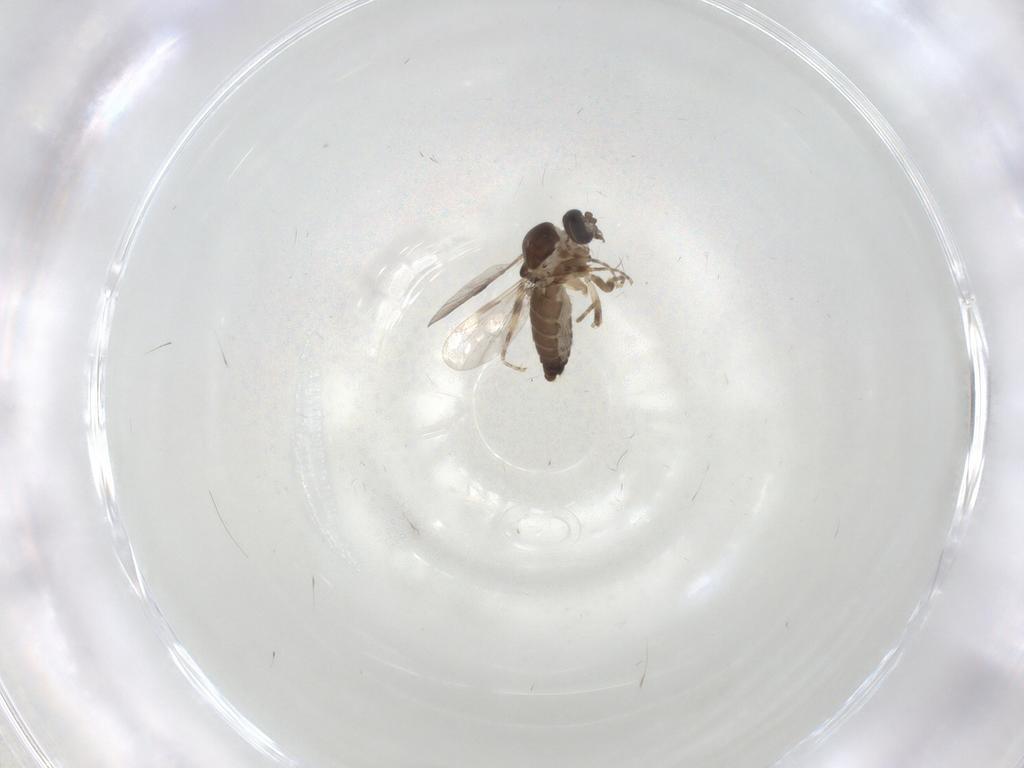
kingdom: Animalia
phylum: Arthropoda
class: Insecta
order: Diptera
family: Ceratopogonidae
